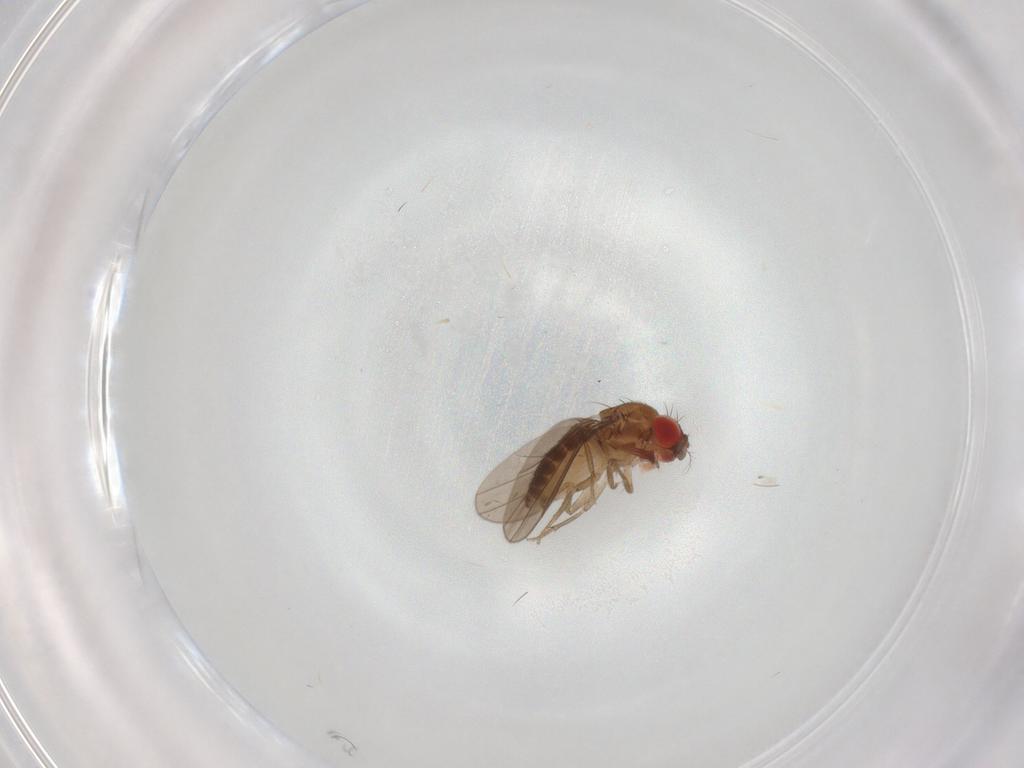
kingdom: Animalia
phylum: Arthropoda
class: Insecta
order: Diptera
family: Drosophilidae
